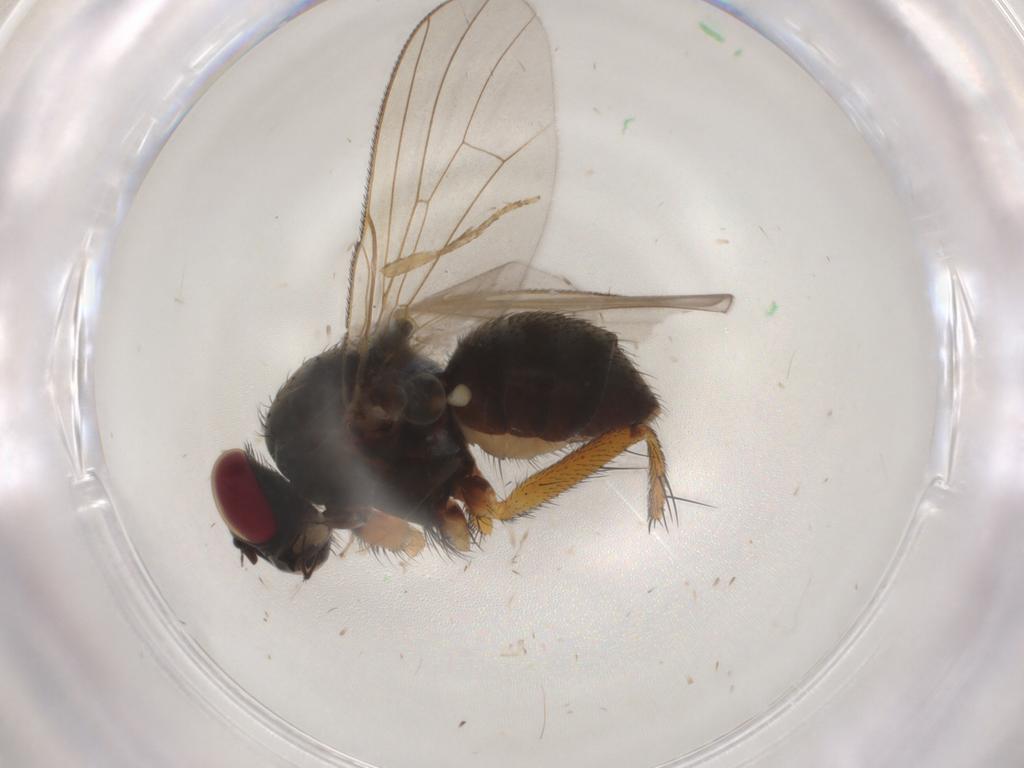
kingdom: Animalia
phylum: Arthropoda
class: Insecta
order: Diptera
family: Muscidae
